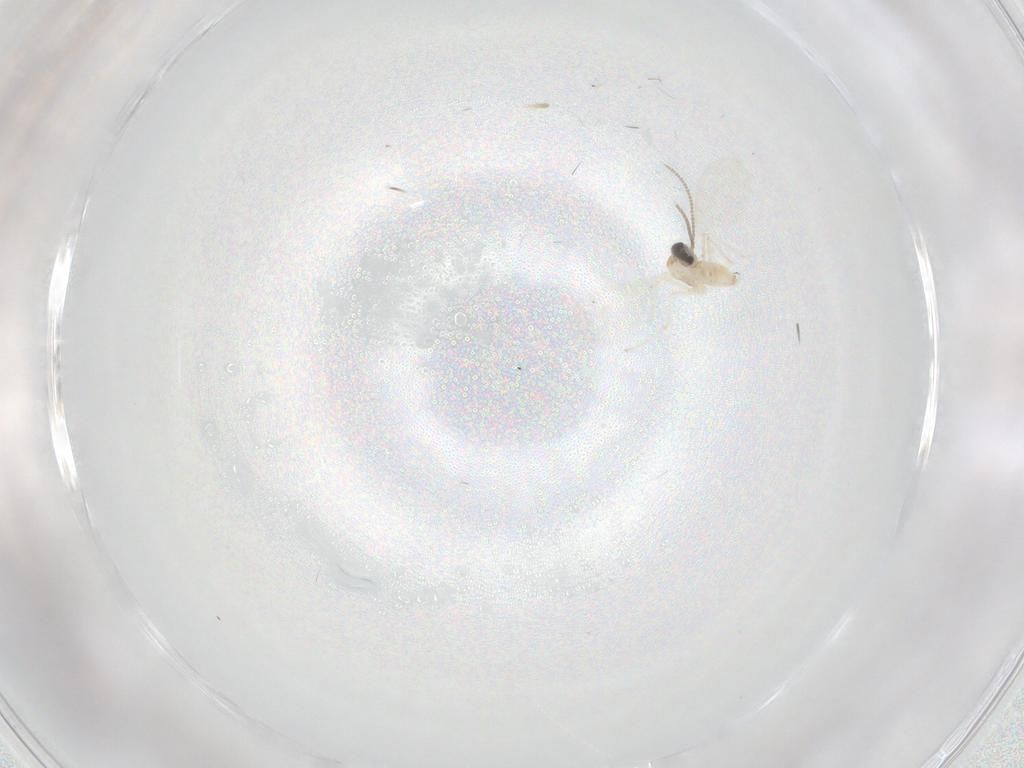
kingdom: Animalia
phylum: Arthropoda
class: Insecta
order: Diptera
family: Cecidomyiidae
